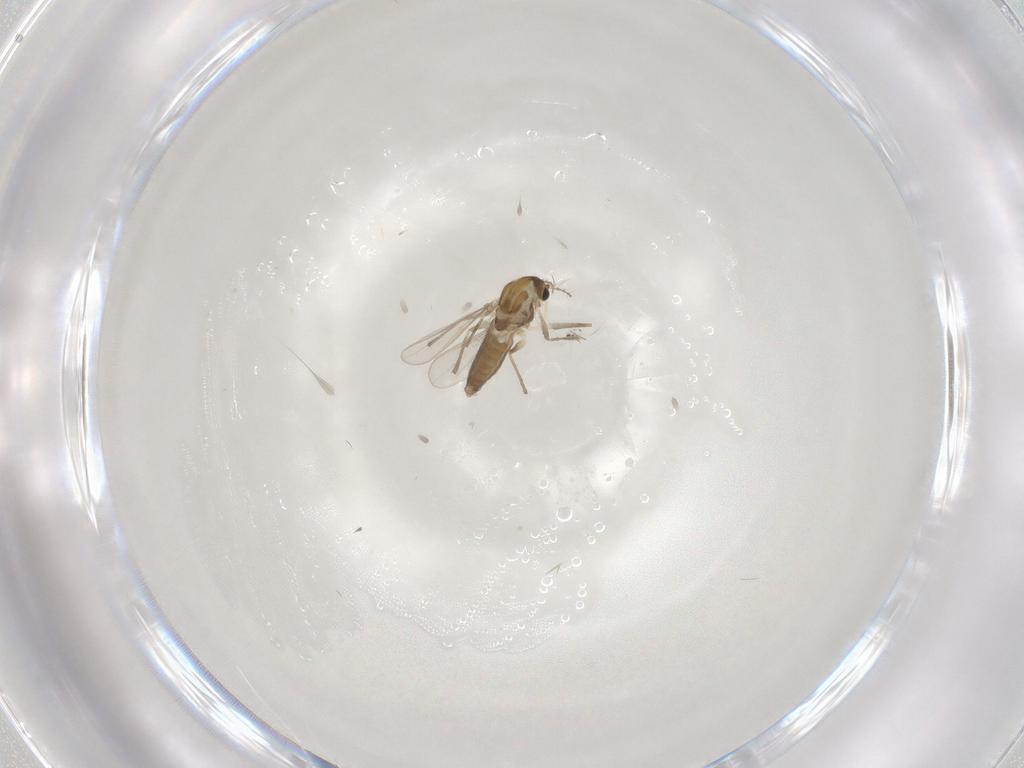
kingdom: Animalia
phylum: Arthropoda
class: Insecta
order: Diptera
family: Chironomidae
